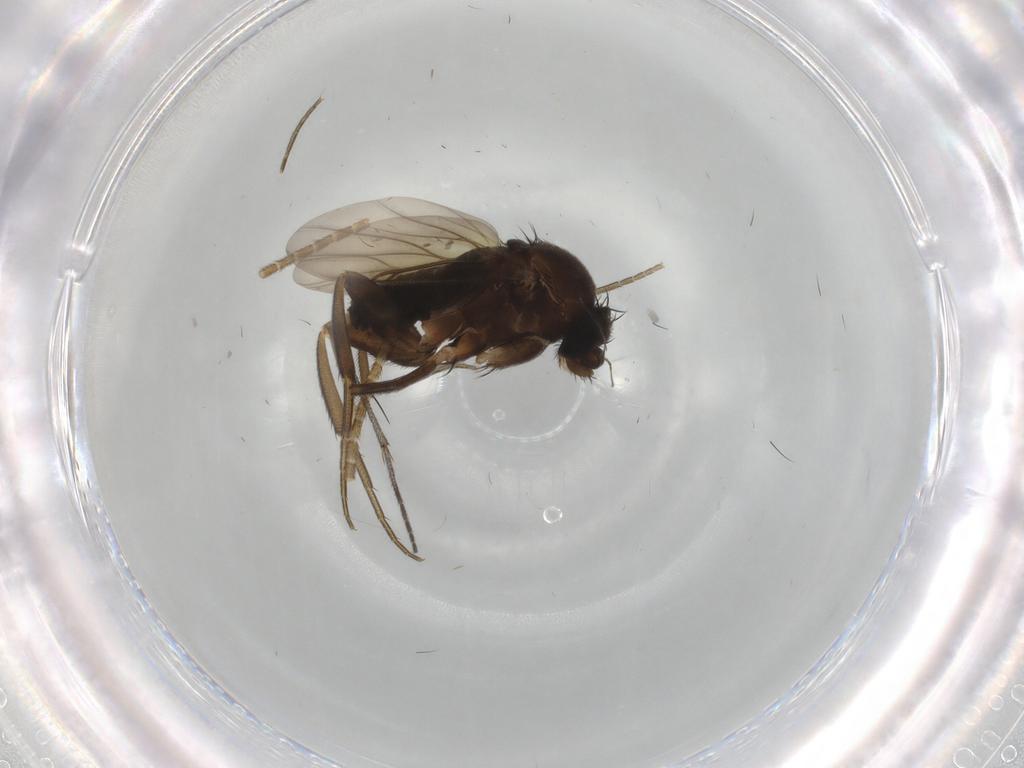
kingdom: Animalia
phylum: Arthropoda
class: Insecta
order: Diptera
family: Phoridae
